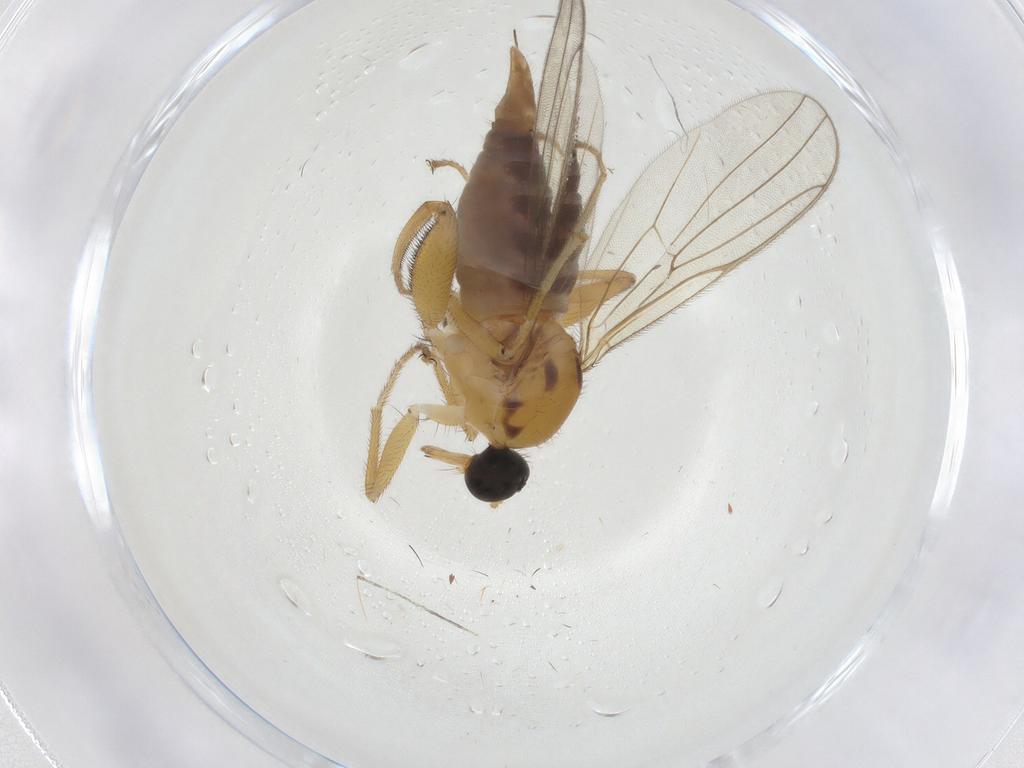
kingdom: Animalia
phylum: Arthropoda
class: Insecta
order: Diptera
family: Hybotidae
